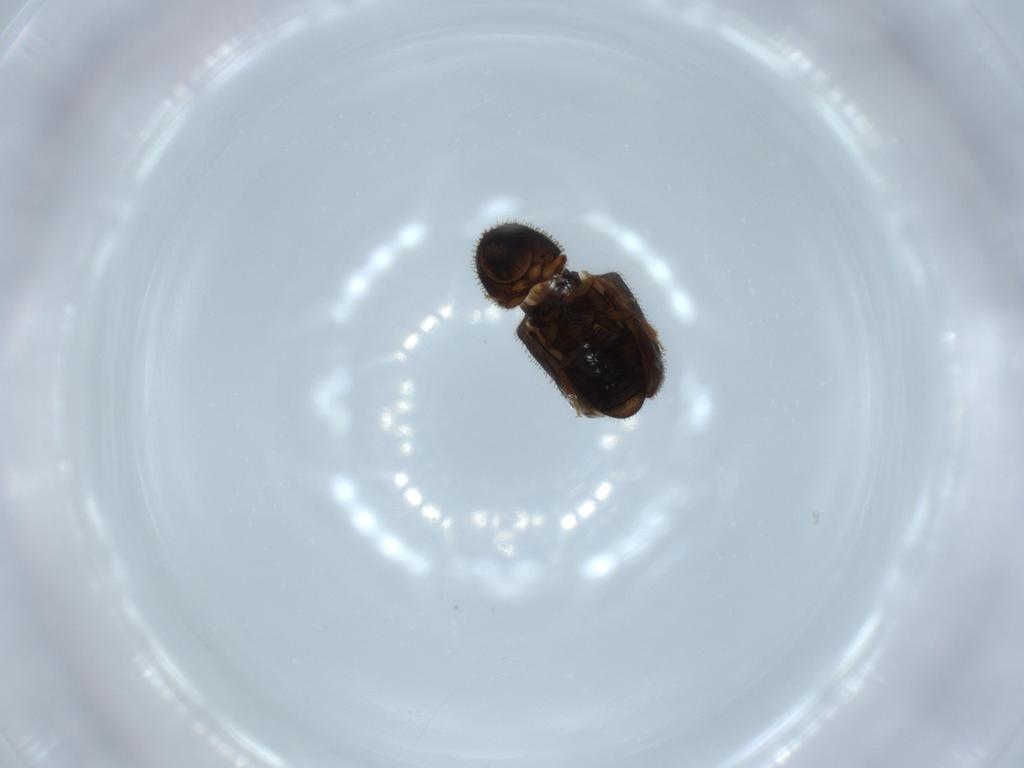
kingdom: Animalia
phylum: Arthropoda
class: Insecta
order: Coleoptera
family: Curculionidae
